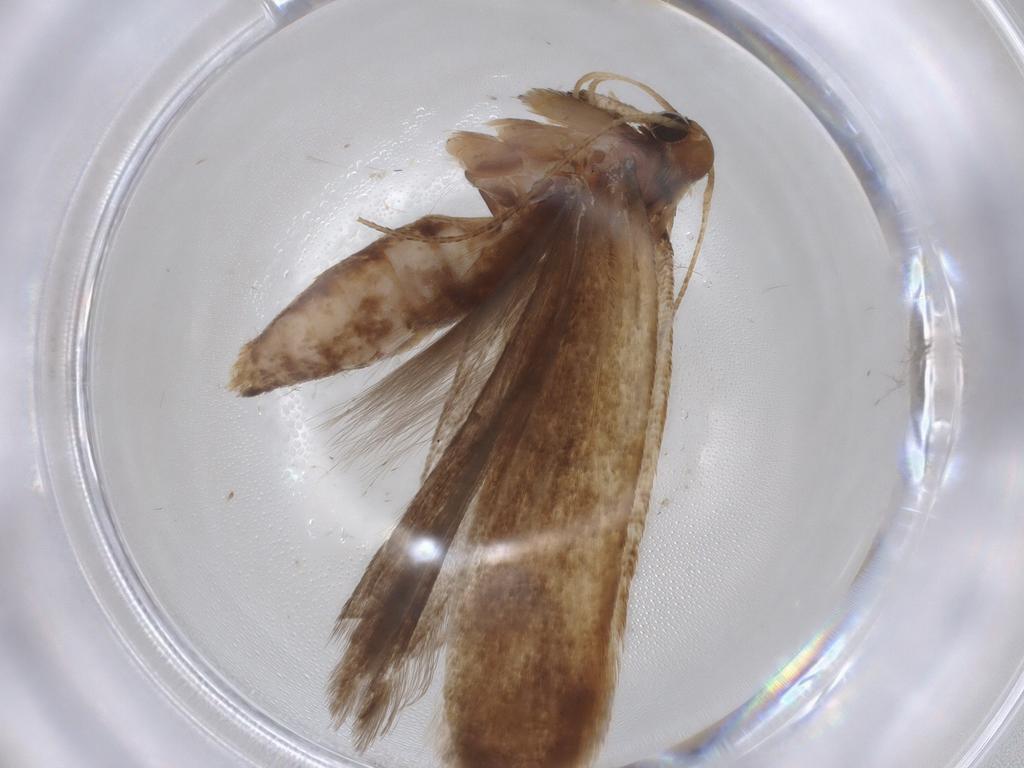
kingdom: Animalia
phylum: Arthropoda
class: Insecta
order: Lepidoptera
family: Gelechiidae
